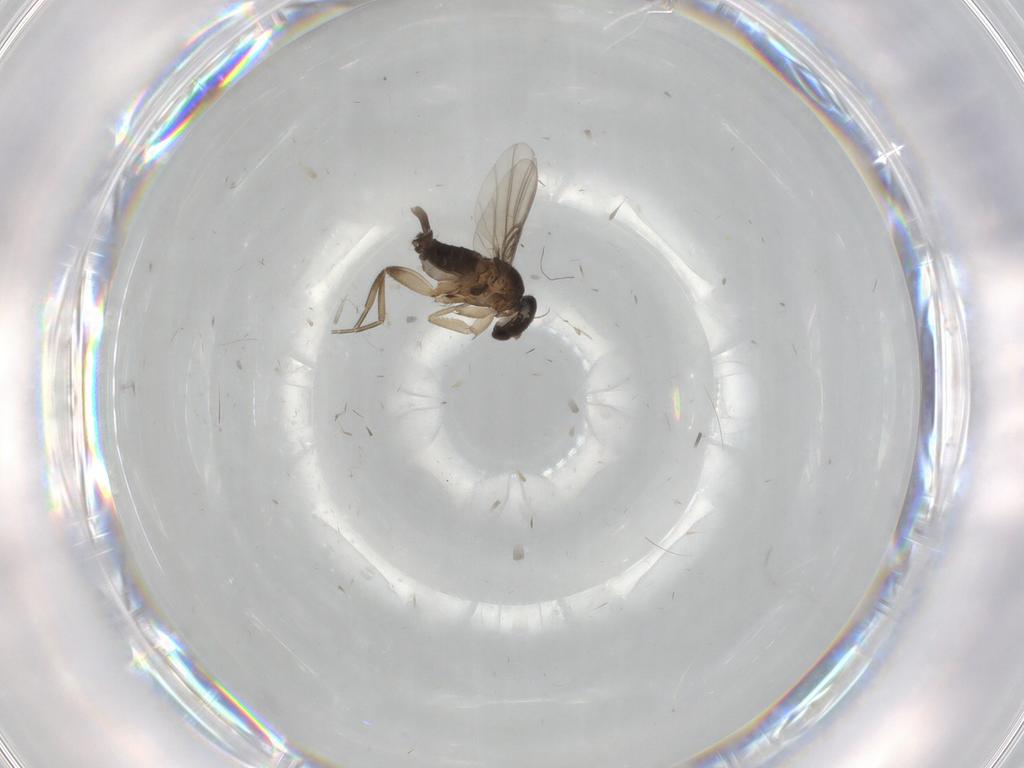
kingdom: Animalia
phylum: Arthropoda
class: Insecta
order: Diptera
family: Phoridae
